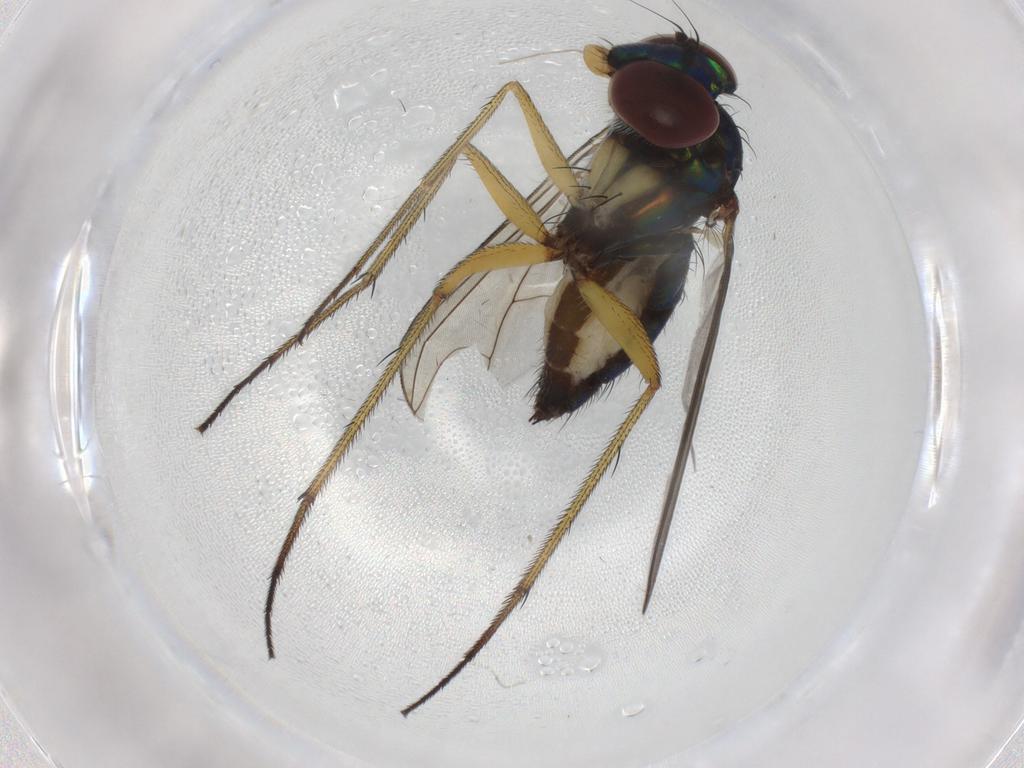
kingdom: Animalia
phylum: Arthropoda
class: Insecta
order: Diptera
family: Dolichopodidae
